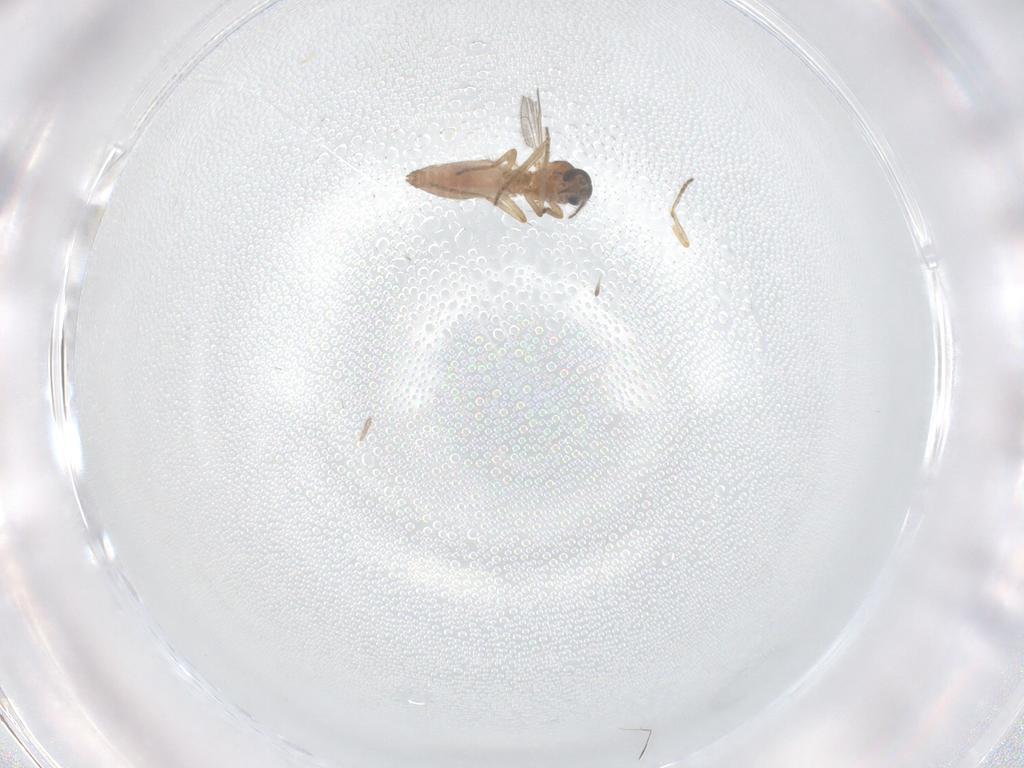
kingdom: Animalia
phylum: Arthropoda
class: Insecta
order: Diptera
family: Ceratopogonidae
